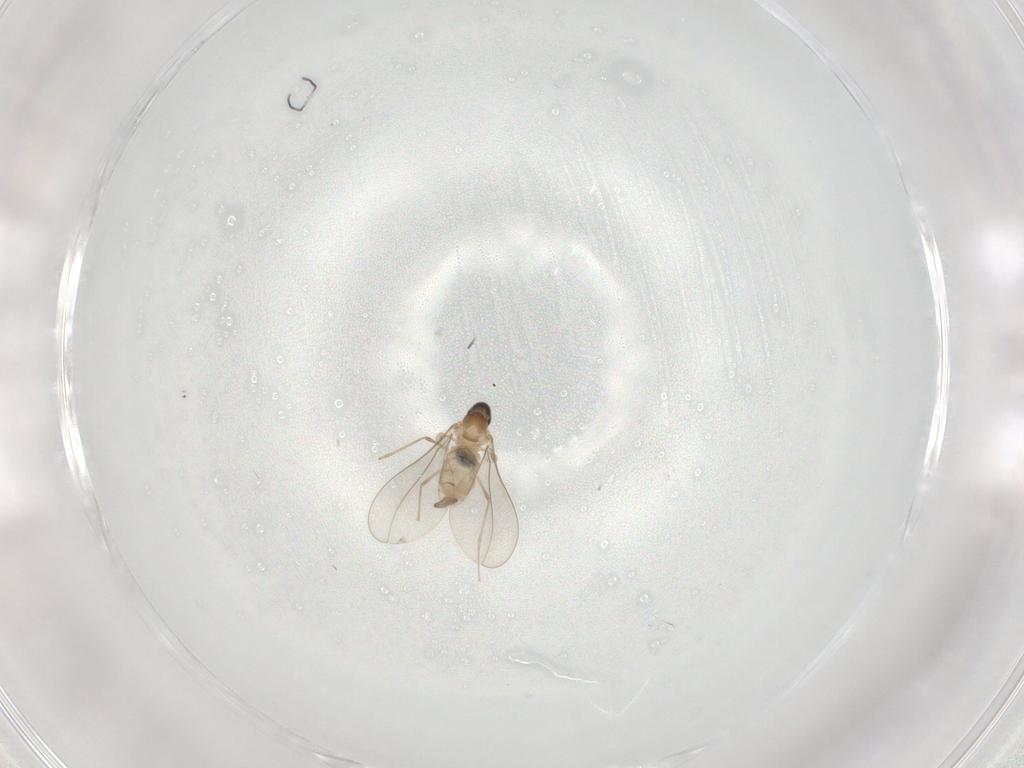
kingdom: Animalia
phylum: Arthropoda
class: Insecta
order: Diptera
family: Cecidomyiidae
